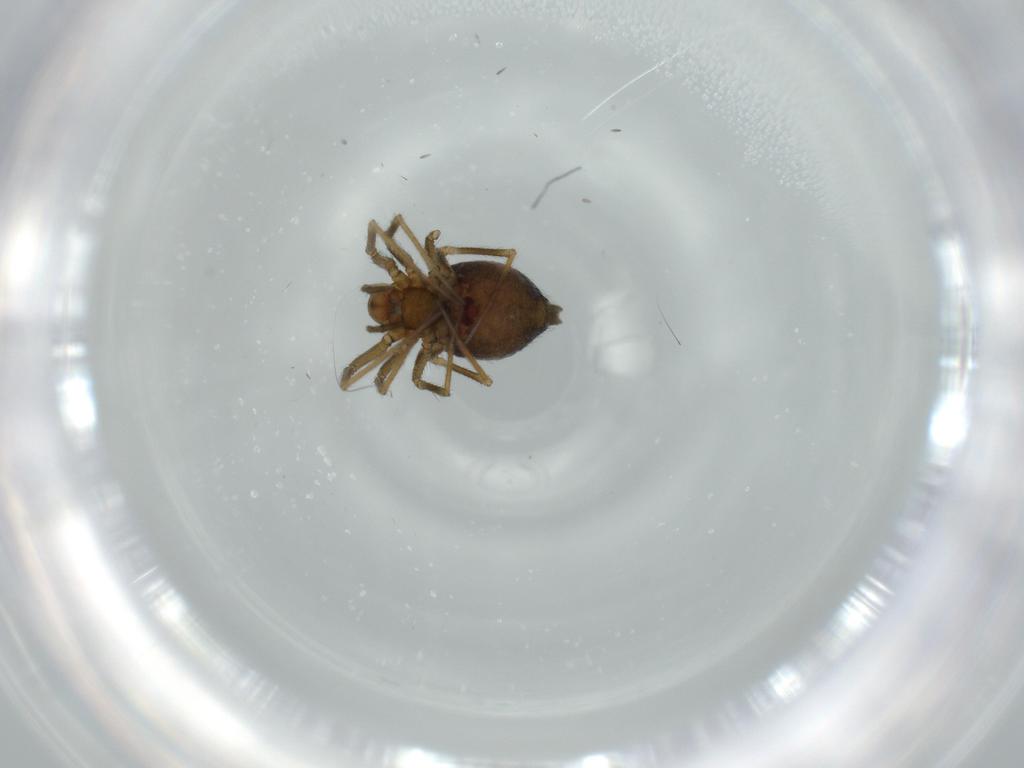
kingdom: Animalia
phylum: Arthropoda
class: Arachnida
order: Araneae
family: Linyphiidae
